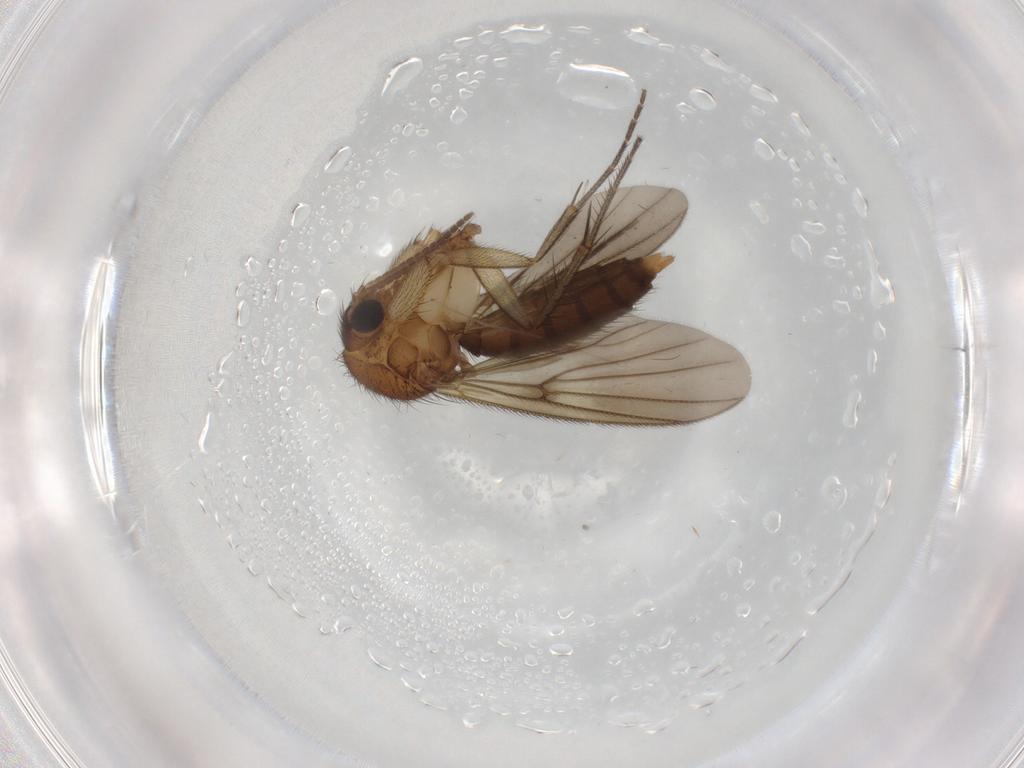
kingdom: Animalia
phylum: Arthropoda
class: Insecta
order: Diptera
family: Mycetophilidae
